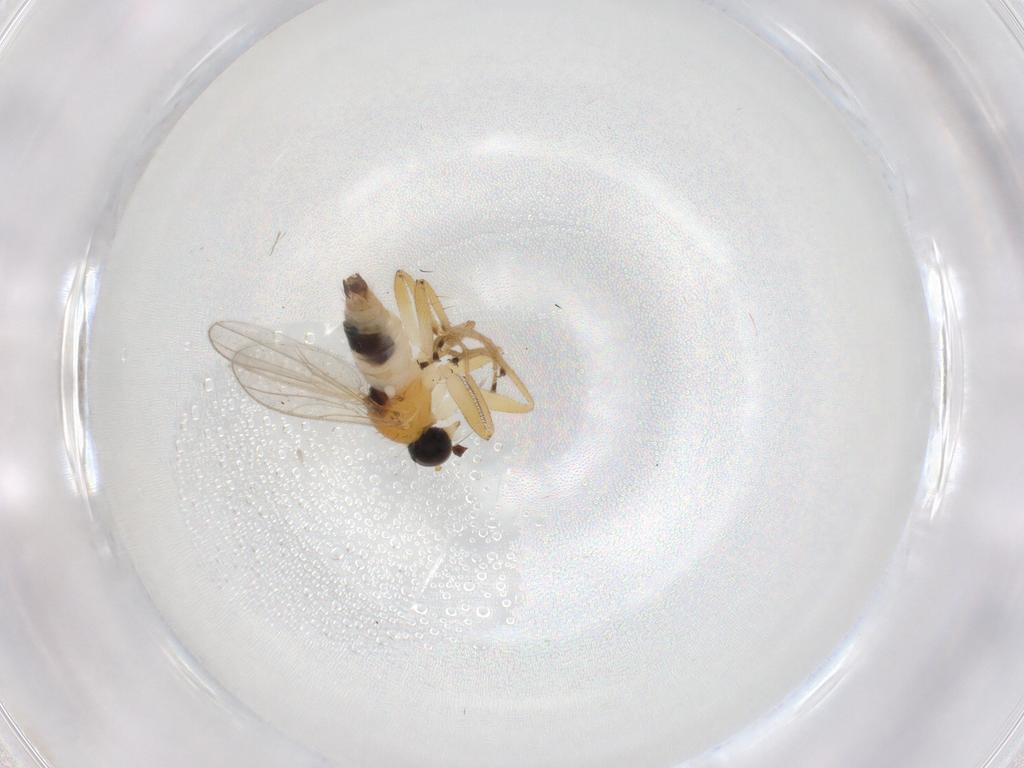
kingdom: Animalia
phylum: Arthropoda
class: Insecta
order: Diptera
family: Hybotidae
